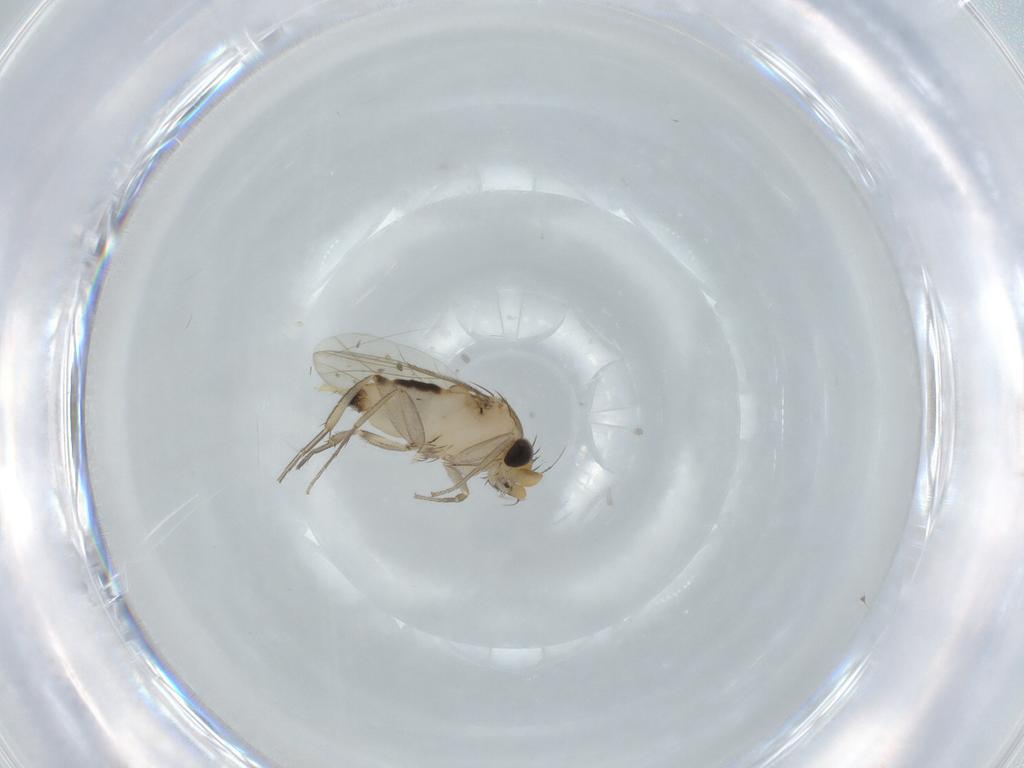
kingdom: Animalia
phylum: Arthropoda
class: Insecta
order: Diptera
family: Phoridae
